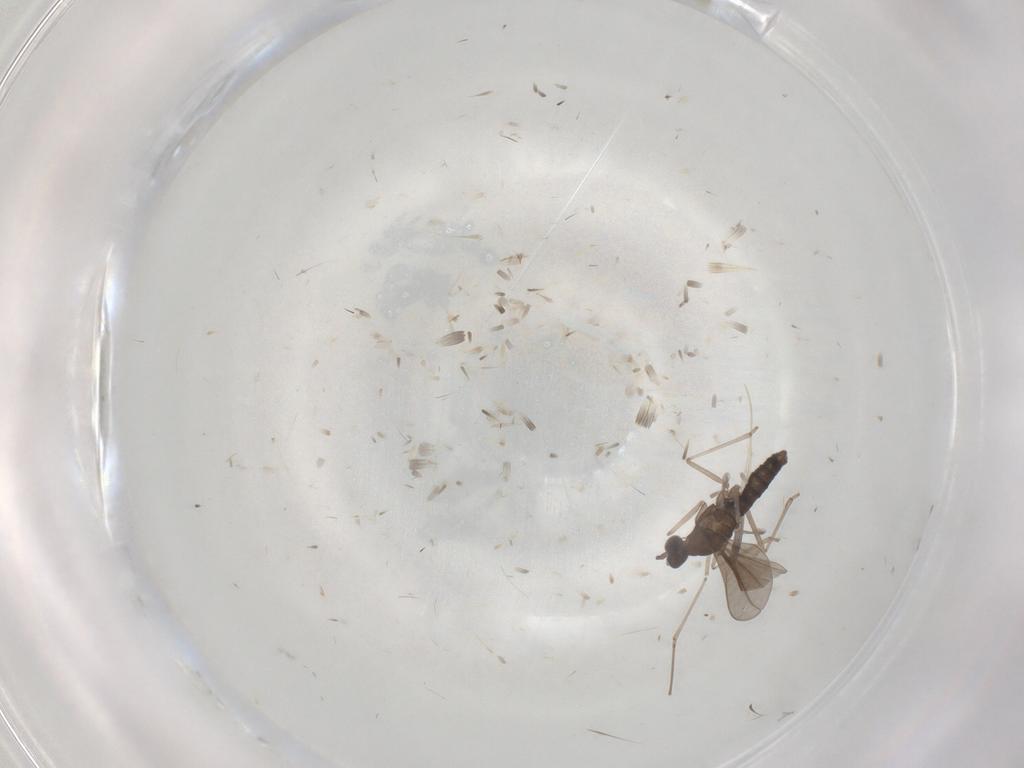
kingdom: Animalia
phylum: Arthropoda
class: Insecta
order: Diptera
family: Cecidomyiidae
